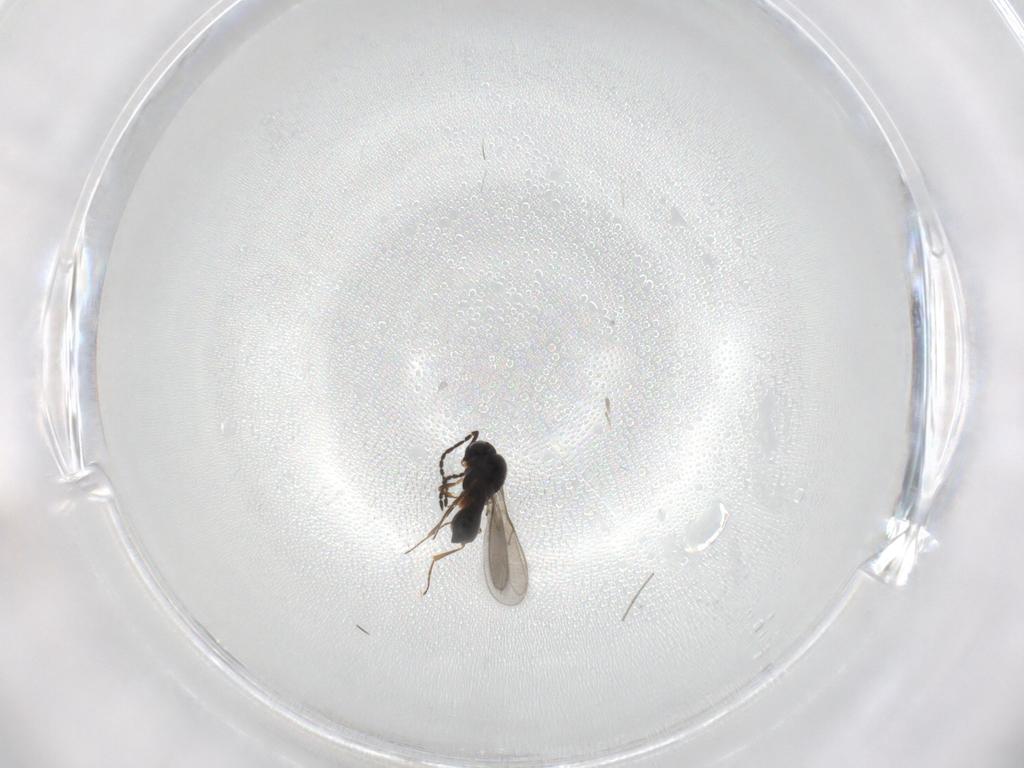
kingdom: Animalia
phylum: Arthropoda
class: Insecta
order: Hymenoptera
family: Scelionidae
